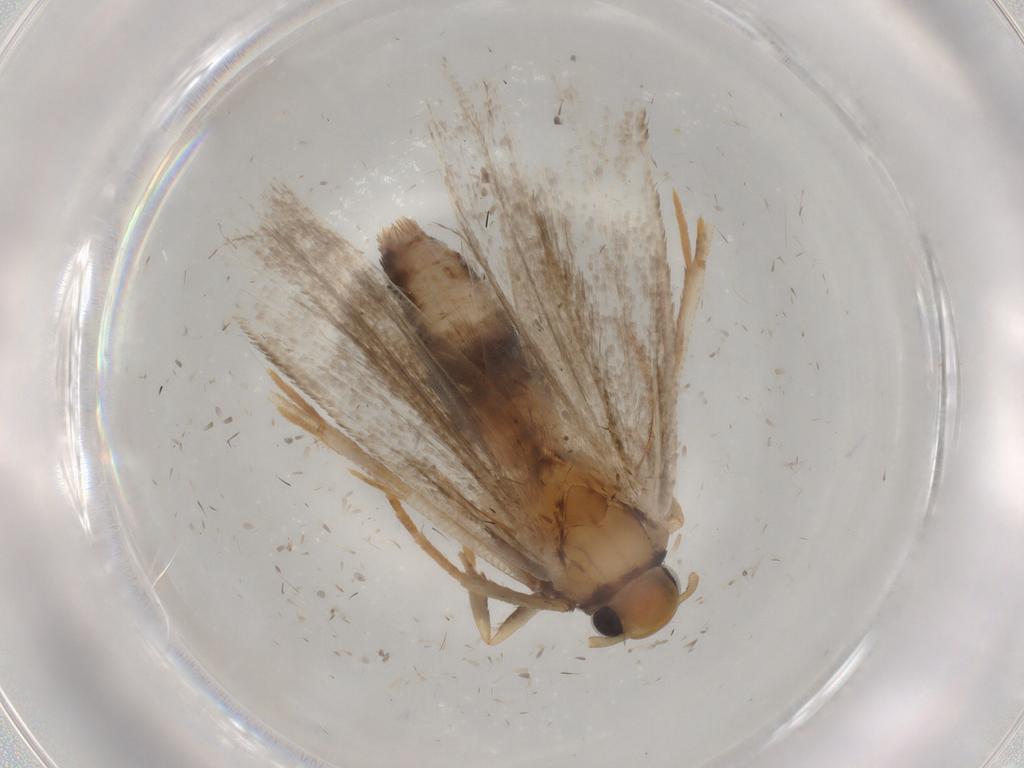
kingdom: Animalia
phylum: Arthropoda
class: Insecta
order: Lepidoptera
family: Gelechiidae
